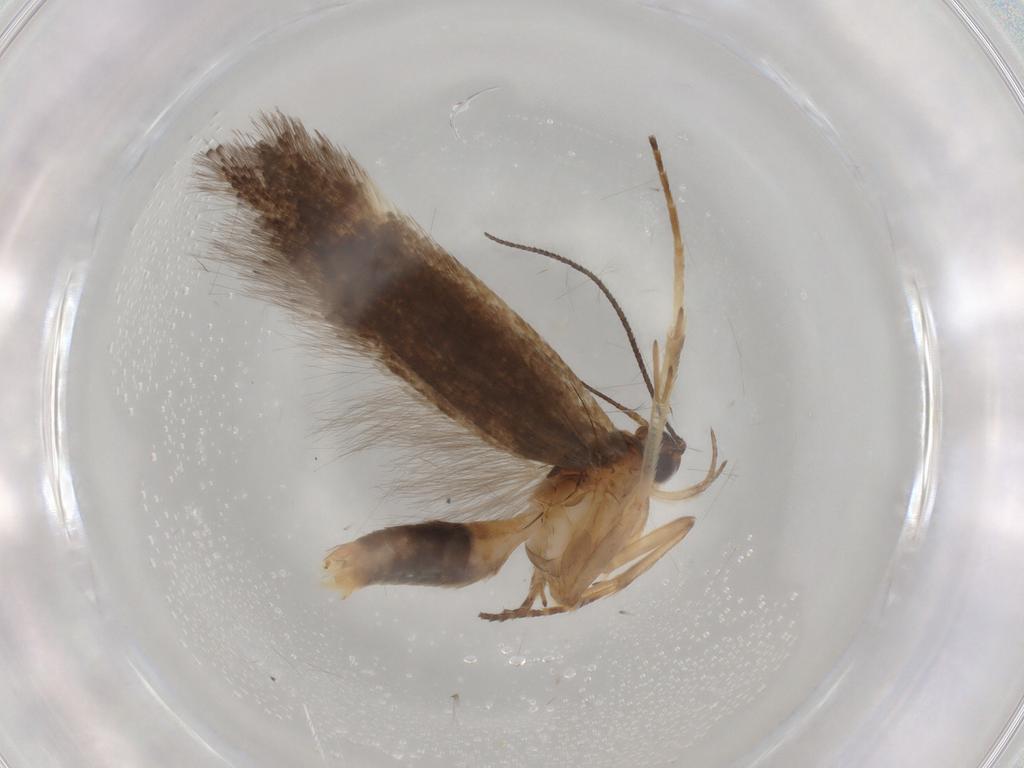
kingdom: Animalia
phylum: Arthropoda
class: Insecta
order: Lepidoptera
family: Gelechiidae
